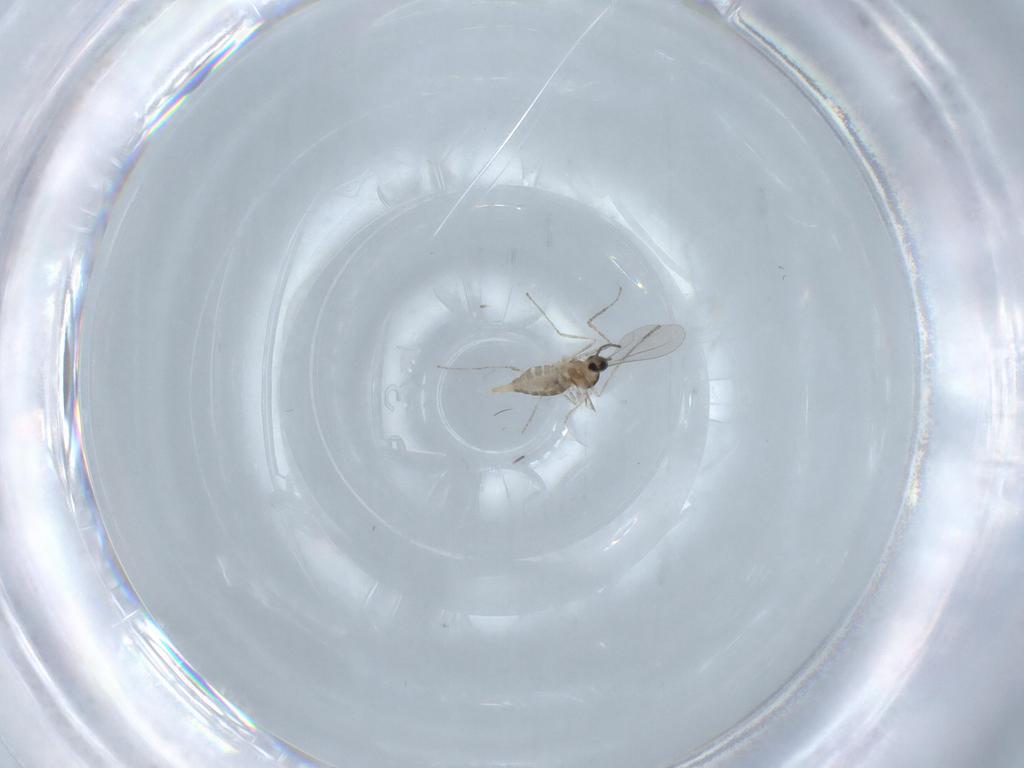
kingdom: Animalia
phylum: Arthropoda
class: Insecta
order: Diptera
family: Cecidomyiidae
